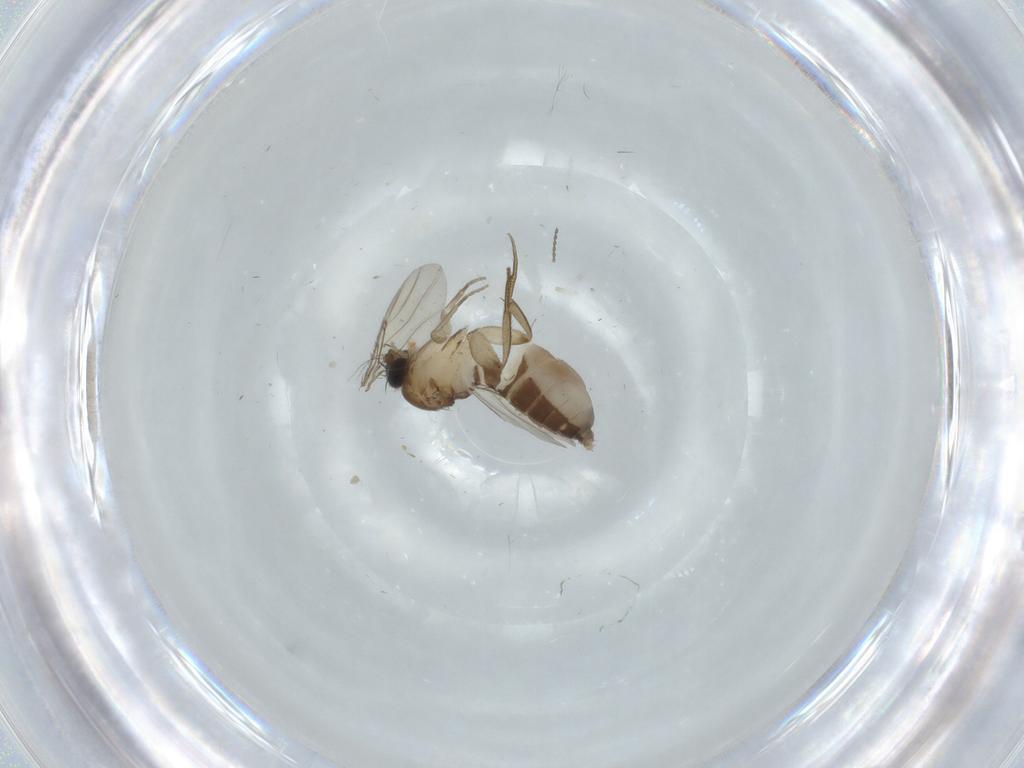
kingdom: Animalia
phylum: Arthropoda
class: Insecta
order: Diptera
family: Phoridae
